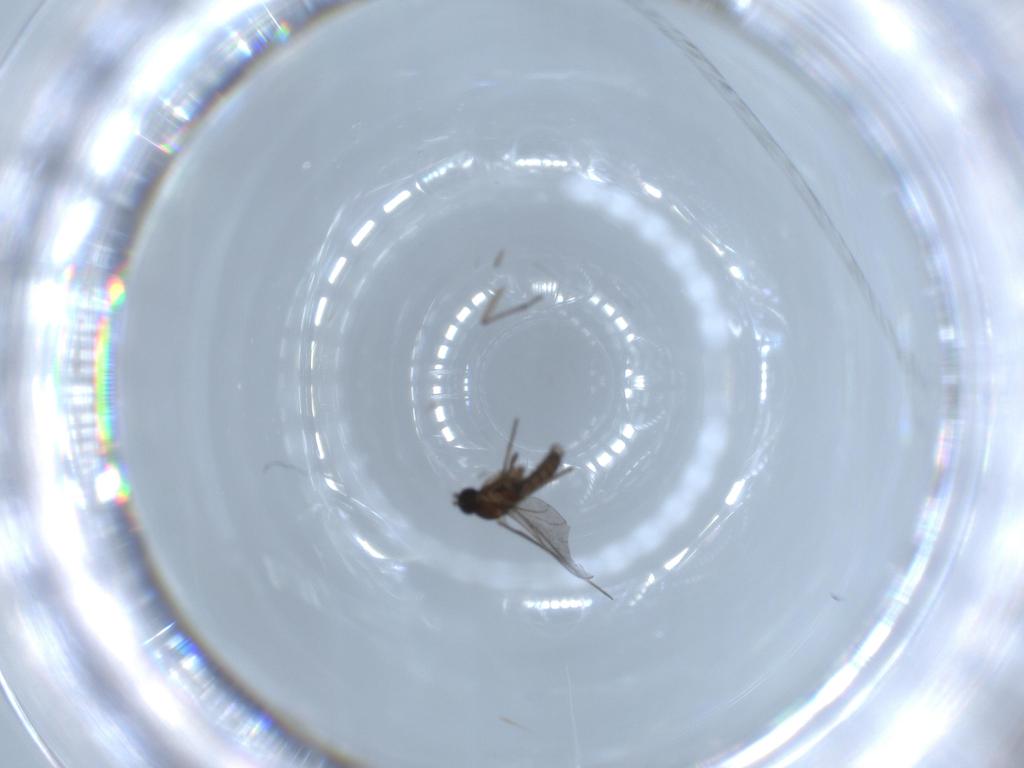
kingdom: Animalia
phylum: Arthropoda
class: Insecta
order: Diptera
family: Sciaridae
